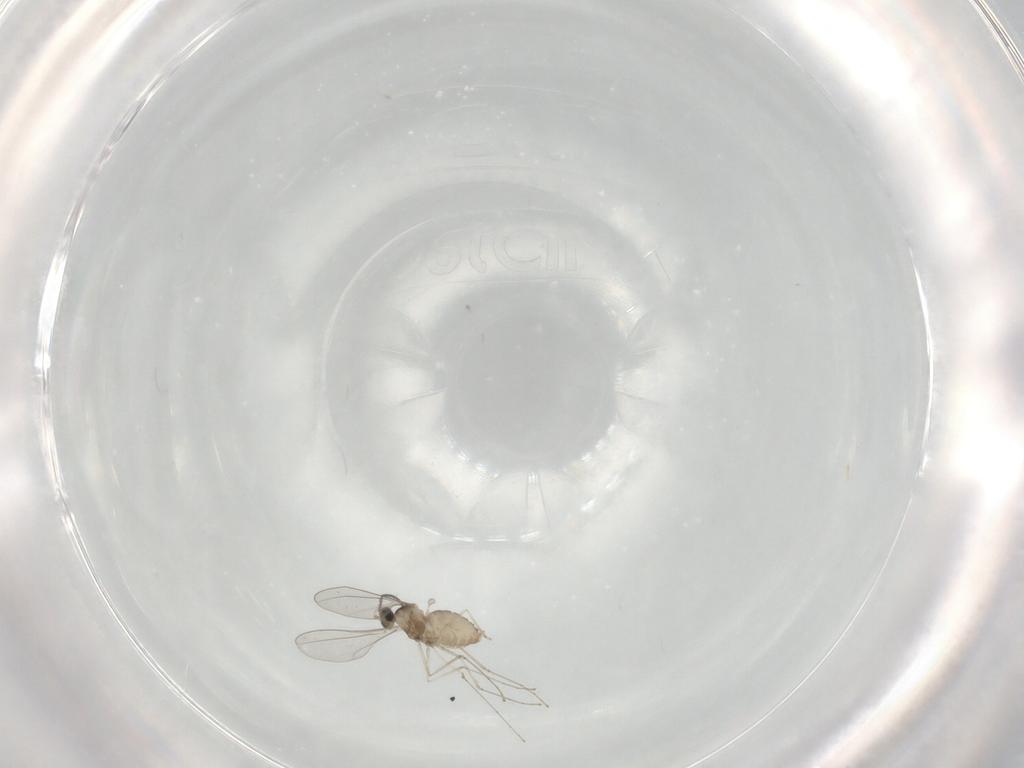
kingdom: Animalia
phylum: Arthropoda
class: Insecta
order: Diptera
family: Cecidomyiidae
